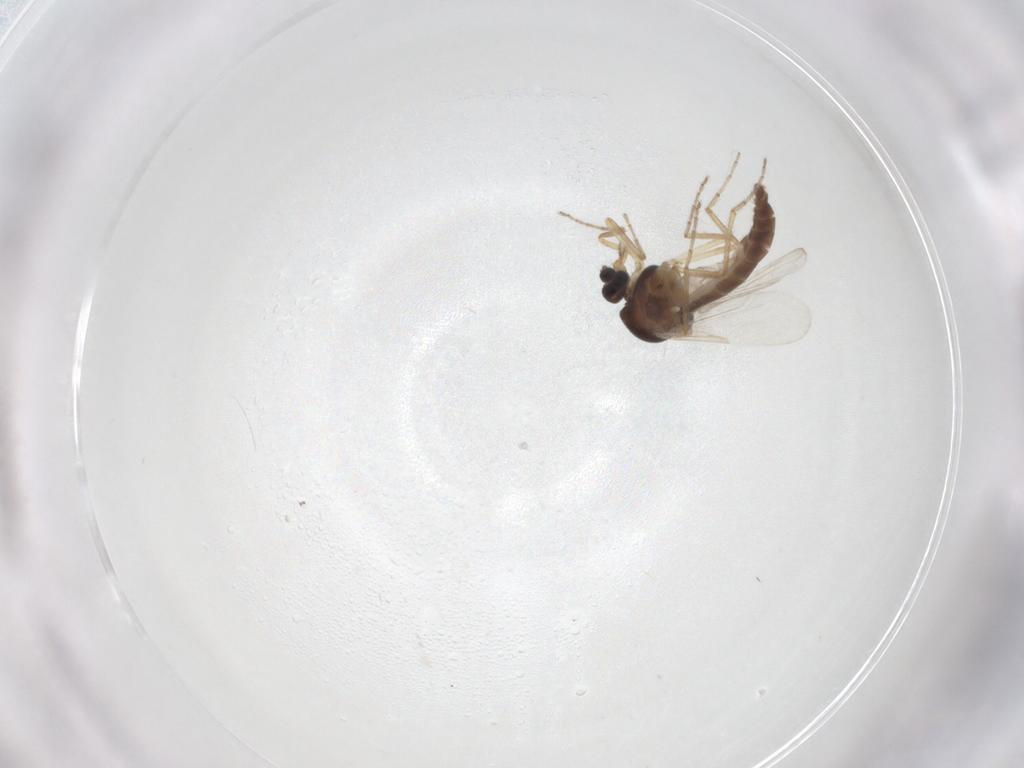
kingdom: Animalia
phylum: Arthropoda
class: Insecta
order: Diptera
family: Ceratopogonidae
